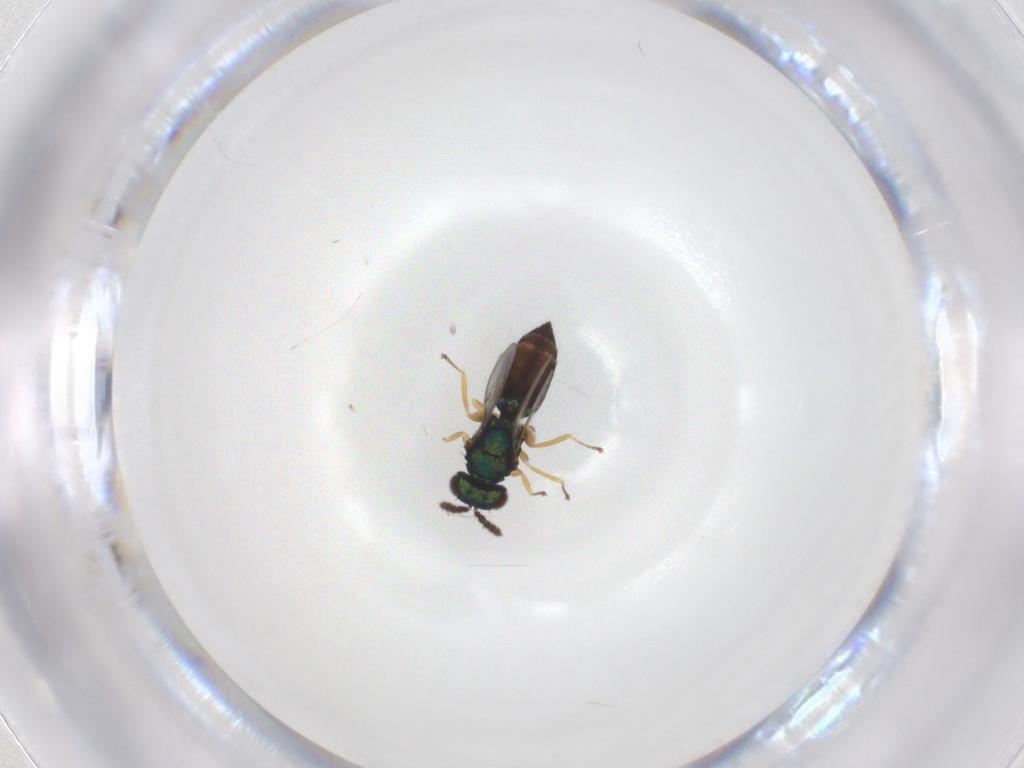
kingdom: Animalia
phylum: Arthropoda
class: Insecta
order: Hymenoptera
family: Eulophidae
